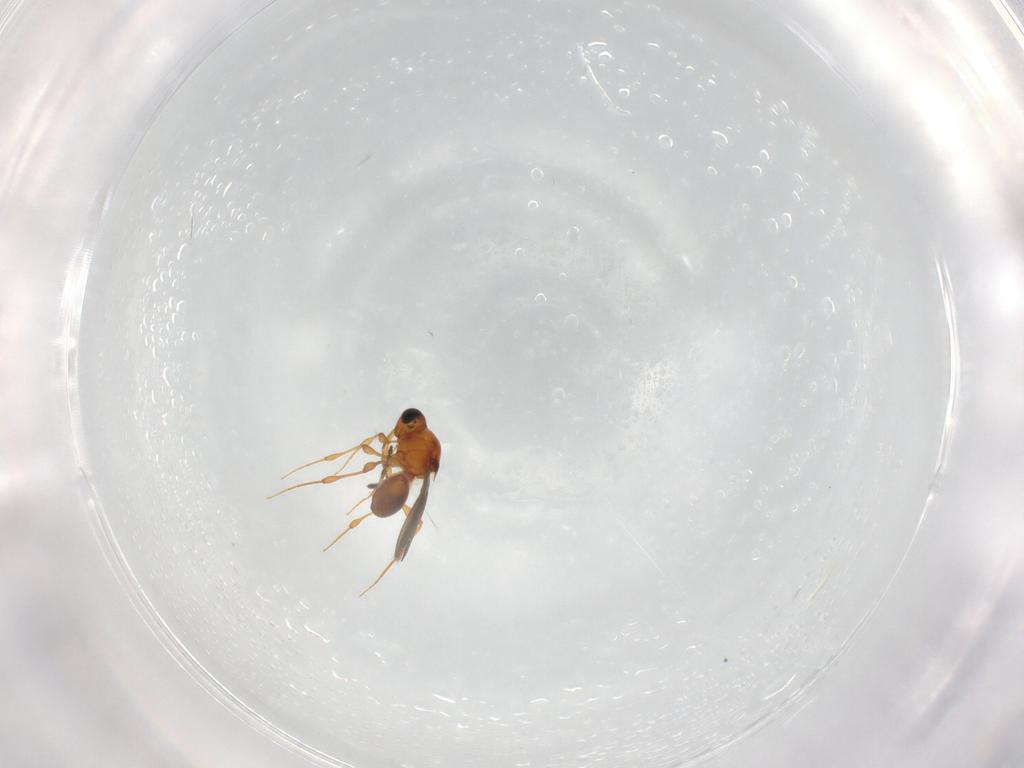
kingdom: Animalia
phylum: Arthropoda
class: Insecta
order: Hymenoptera
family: Platygastridae
